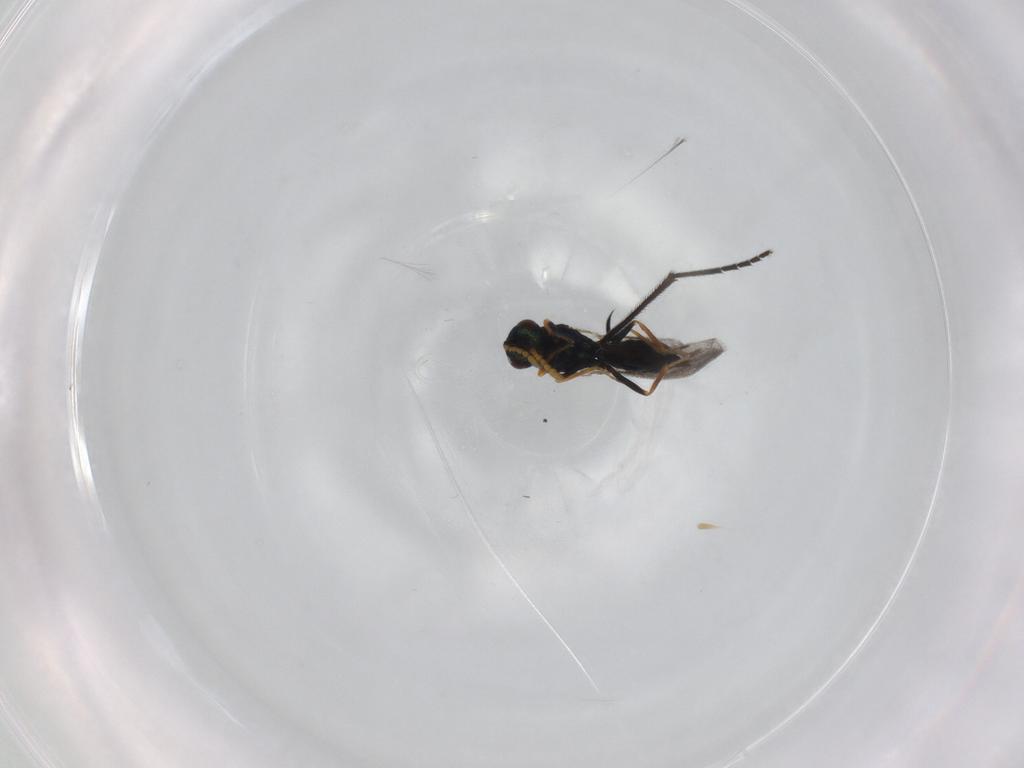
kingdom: Animalia
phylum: Arthropoda
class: Insecta
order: Hymenoptera
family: Eulophidae
